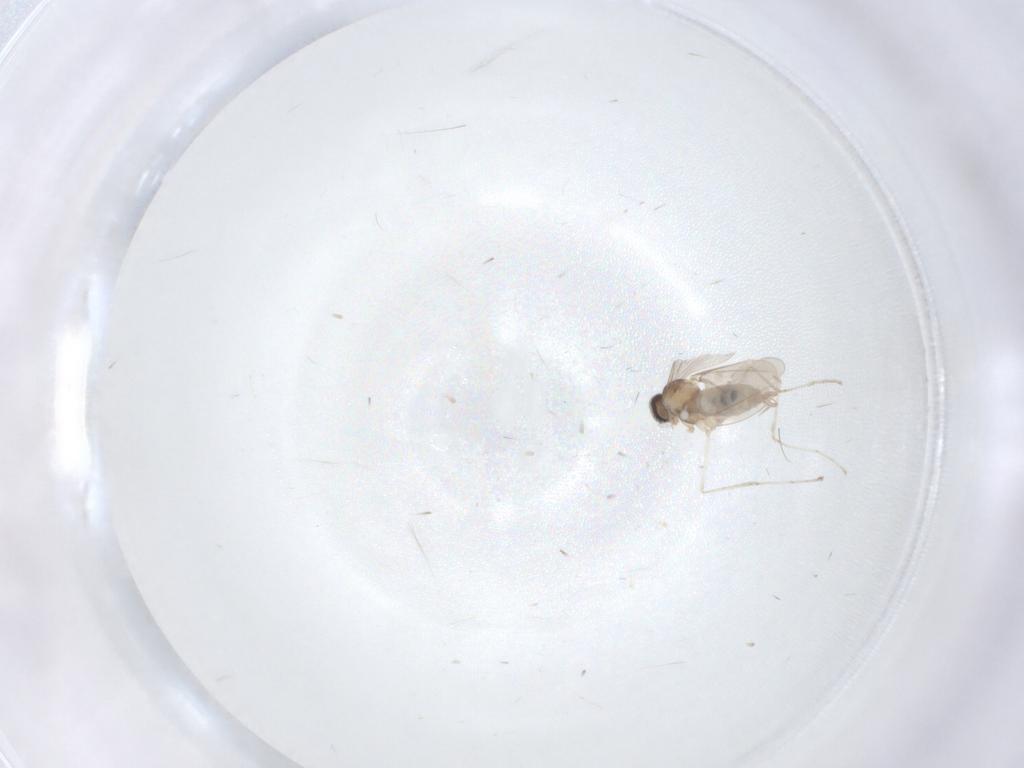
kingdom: Animalia
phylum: Arthropoda
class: Insecta
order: Diptera
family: Cecidomyiidae
